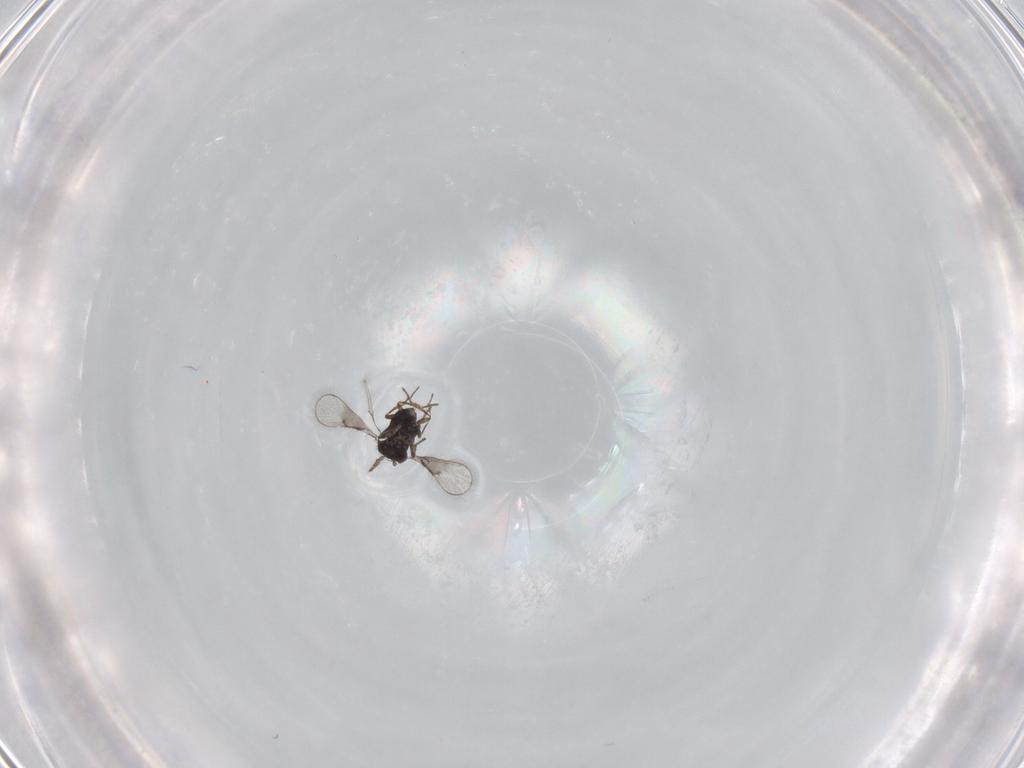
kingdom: Animalia
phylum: Arthropoda
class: Insecta
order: Hymenoptera
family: Trichogrammatidae
